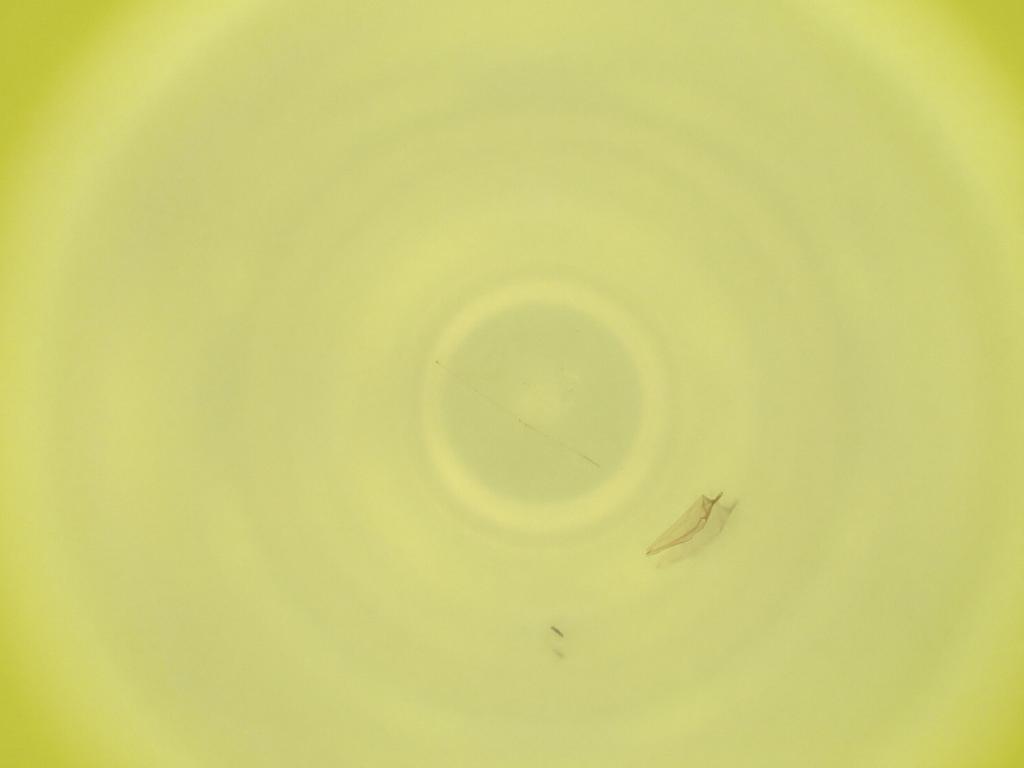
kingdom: Animalia
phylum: Arthropoda
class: Insecta
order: Diptera
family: Cecidomyiidae
